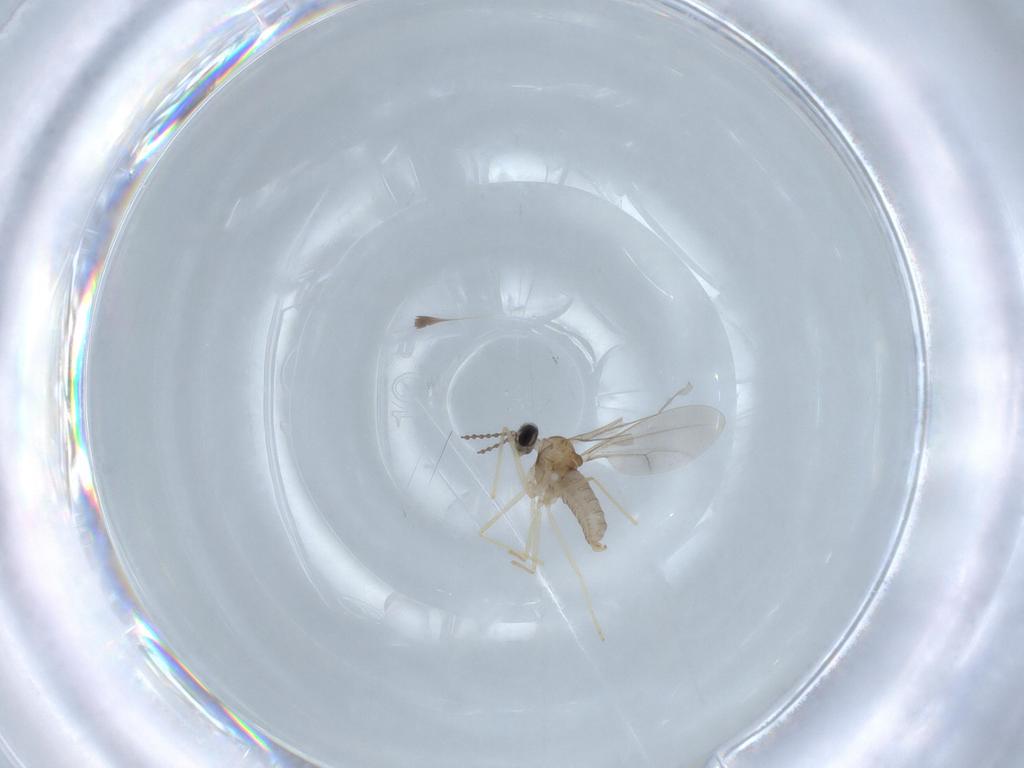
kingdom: Animalia
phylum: Arthropoda
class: Insecta
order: Diptera
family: Cecidomyiidae
